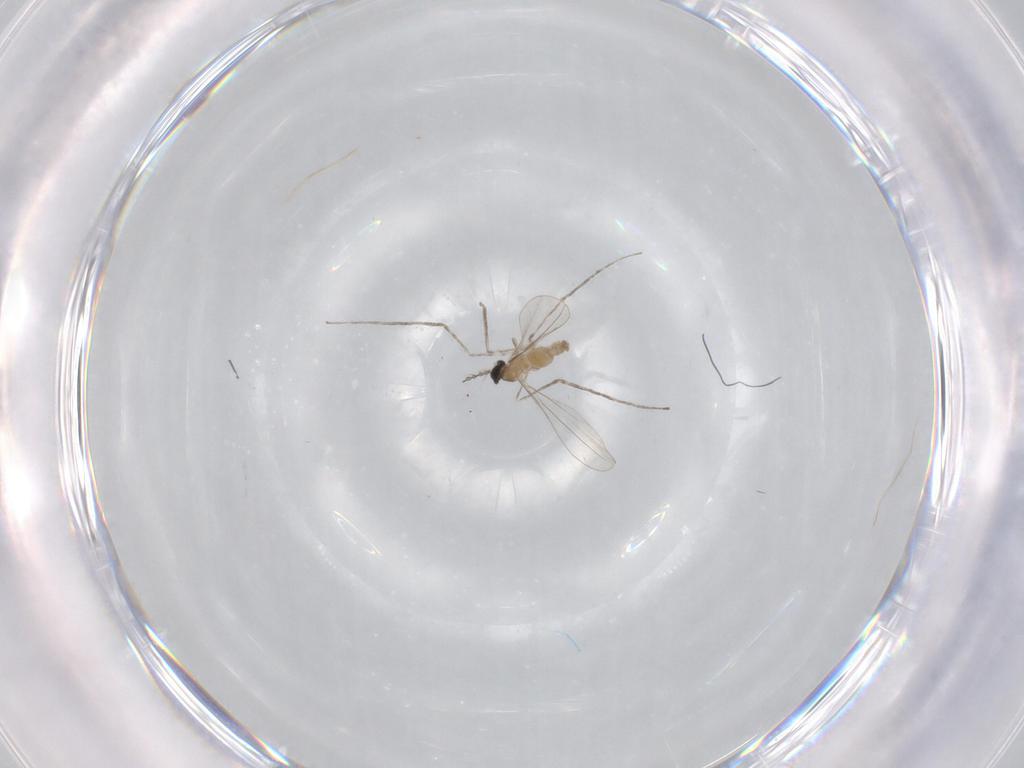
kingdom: Animalia
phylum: Arthropoda
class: Insecta
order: Diptera
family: Cecidomyiidae
